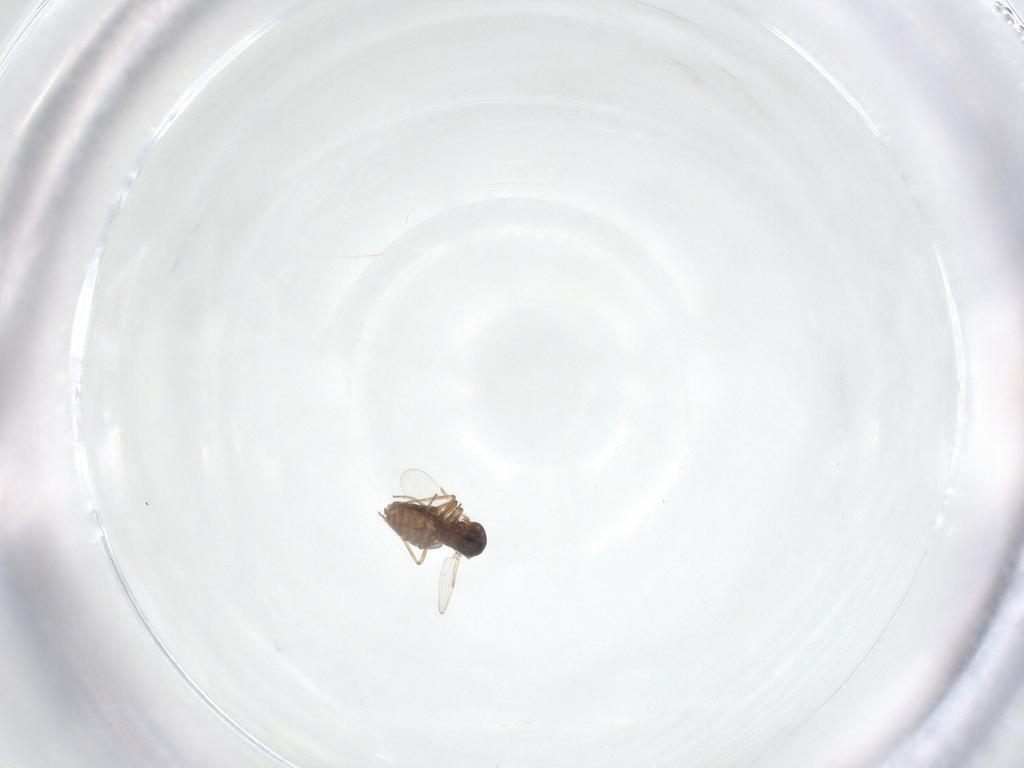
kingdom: Animalia
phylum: Arthropoda
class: Insecta
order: Diptera
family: Ceratopogonidae
